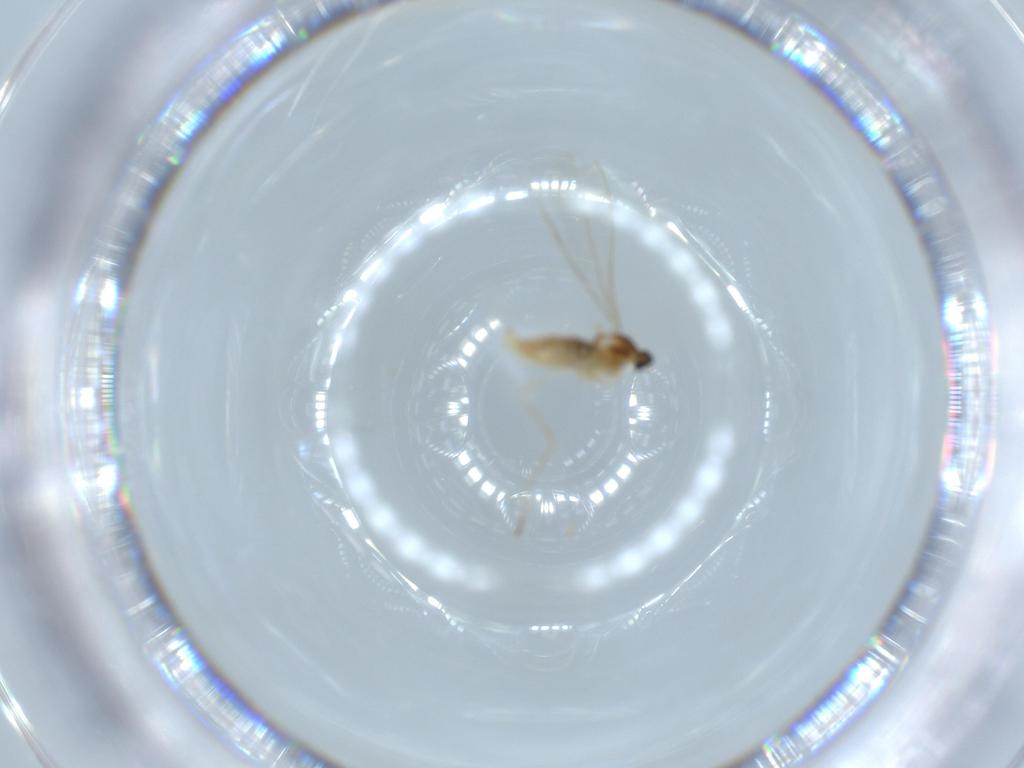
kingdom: Animalia
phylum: Arthropoda
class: Insecta
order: Diptera
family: Cecidomyiidae
